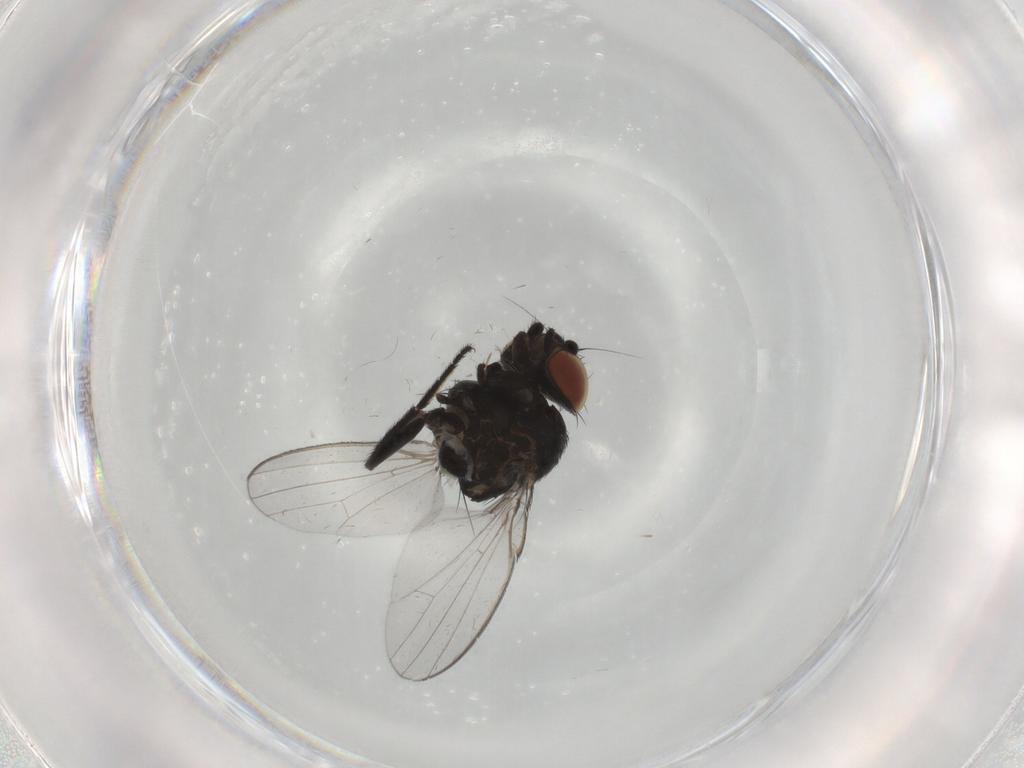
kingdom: Animalia
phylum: Arthropoda
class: Insecta
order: Diptera
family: Milichiidae
